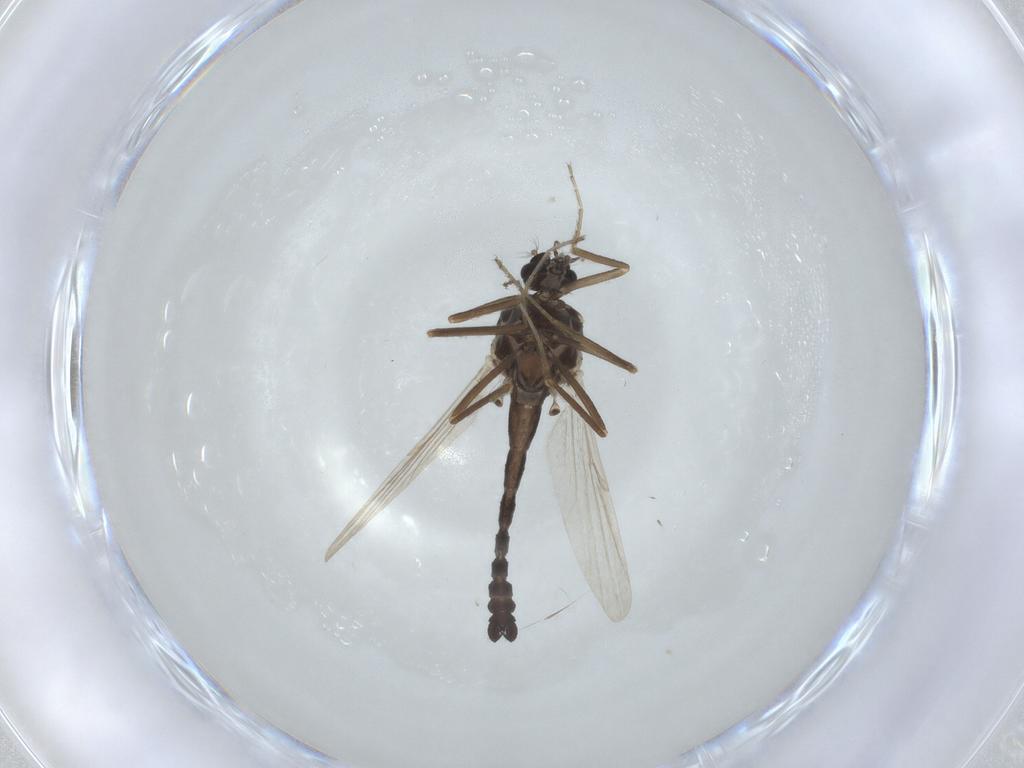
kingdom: Animalia
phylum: Arthropoda
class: Insecta
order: Diptera
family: Ceratopogonidae
